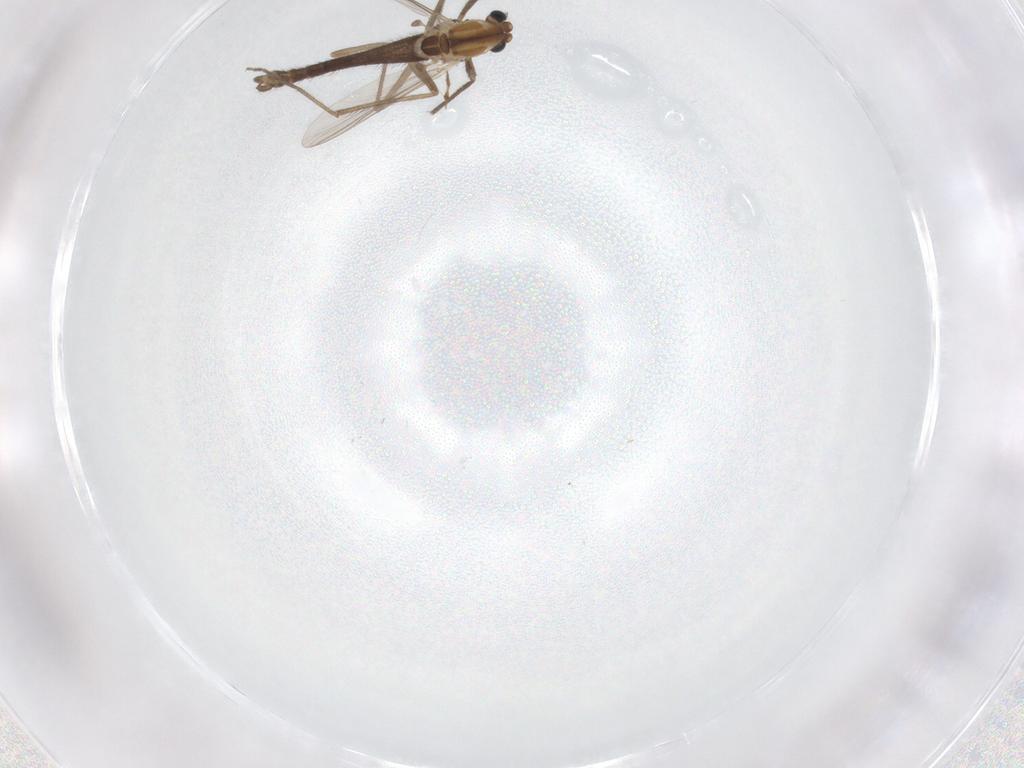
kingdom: Animalia
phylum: Arthropoda
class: Insecta
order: Diptera
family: Chironomidae
